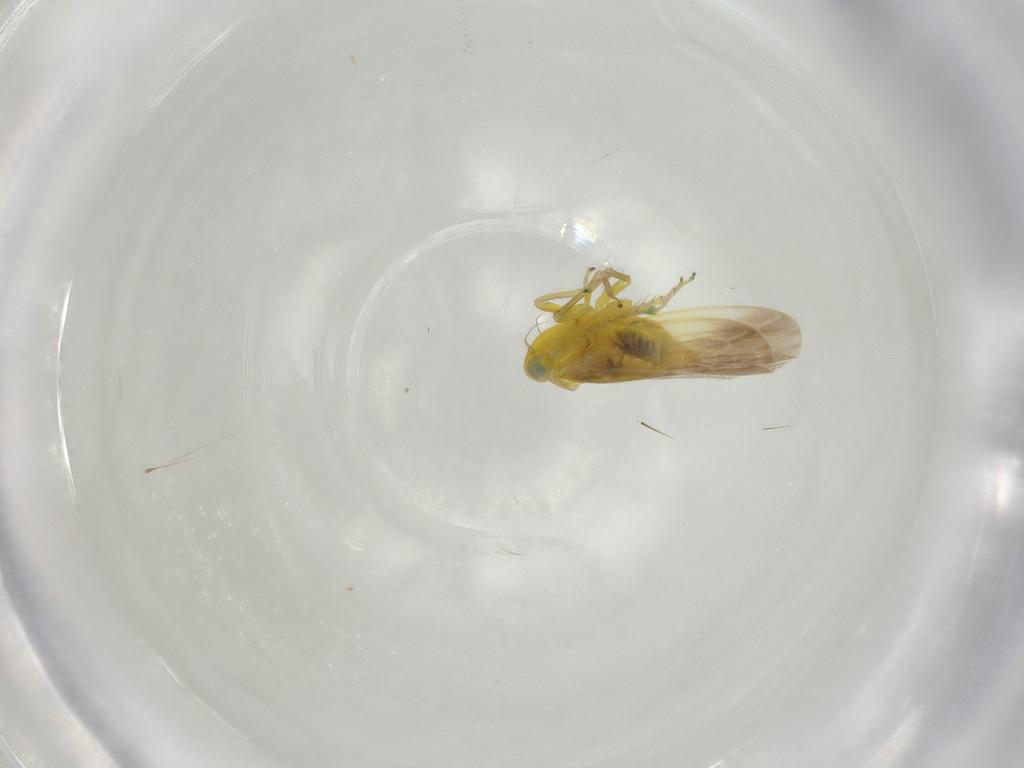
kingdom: Animalia
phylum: Arthropoda
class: Insecta
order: Hemiptera
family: Cicadellidae
